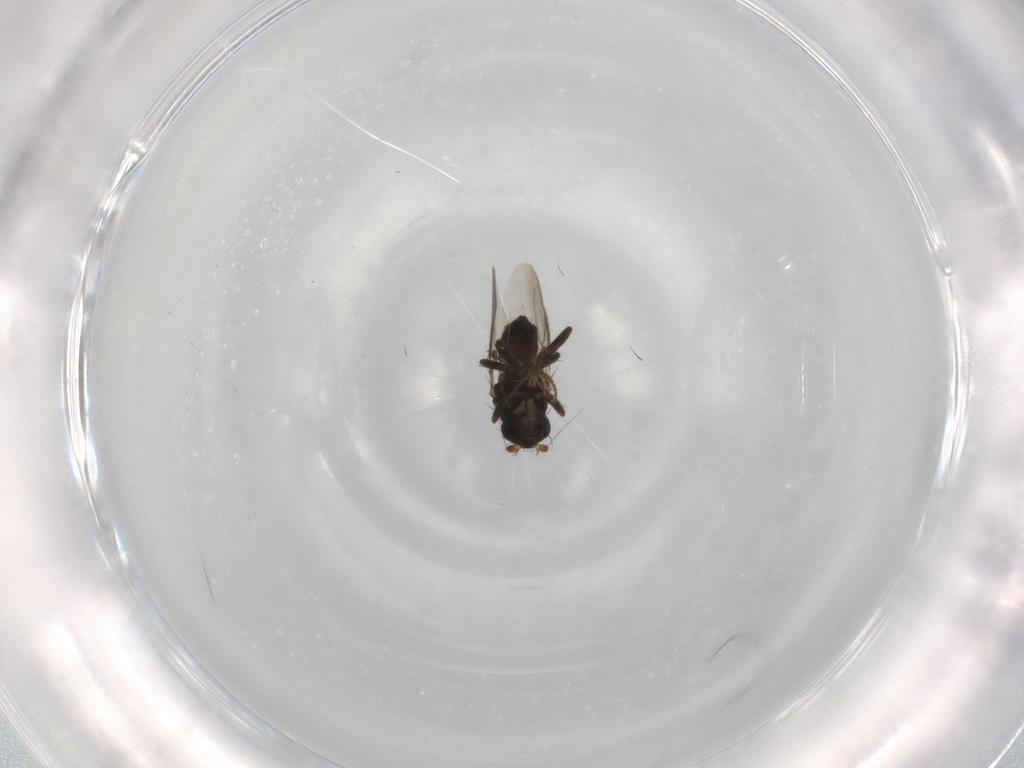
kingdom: Animalia
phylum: Arthropoda
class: Insecta
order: Diptera
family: Sphaeroceridae
